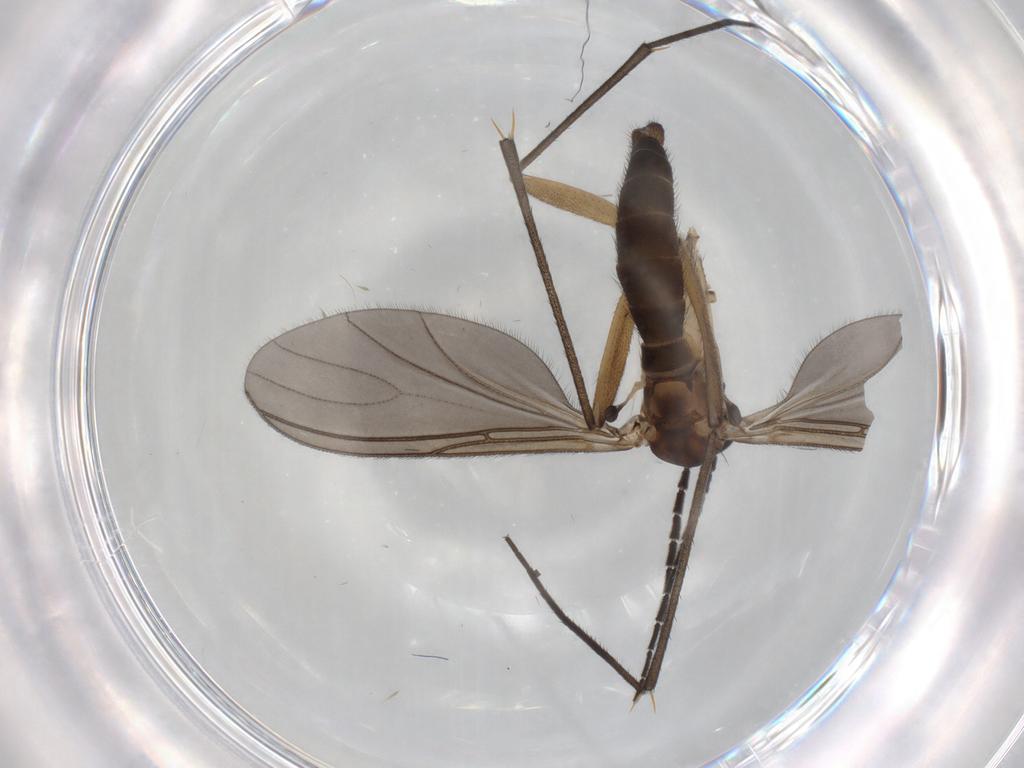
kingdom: Animalia
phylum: Arthropoda
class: Insecta
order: Diptera
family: Sciaridae
